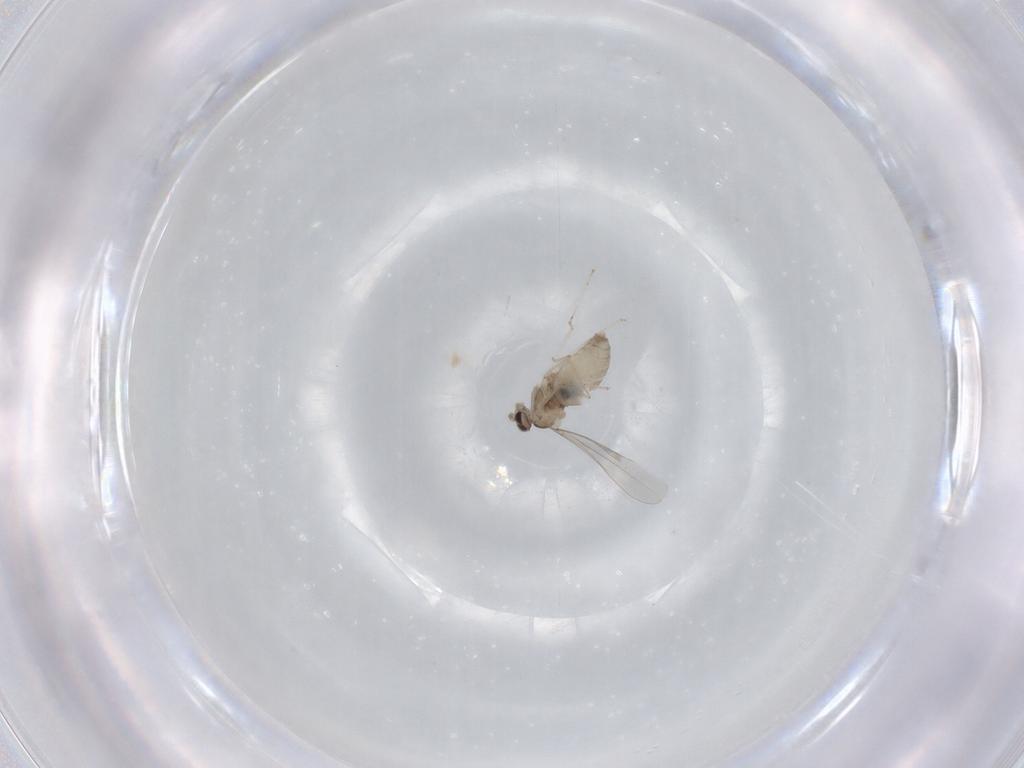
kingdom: Animalia
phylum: Arthropoda
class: Insecta
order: Diptera
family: Cecidomyiidae
